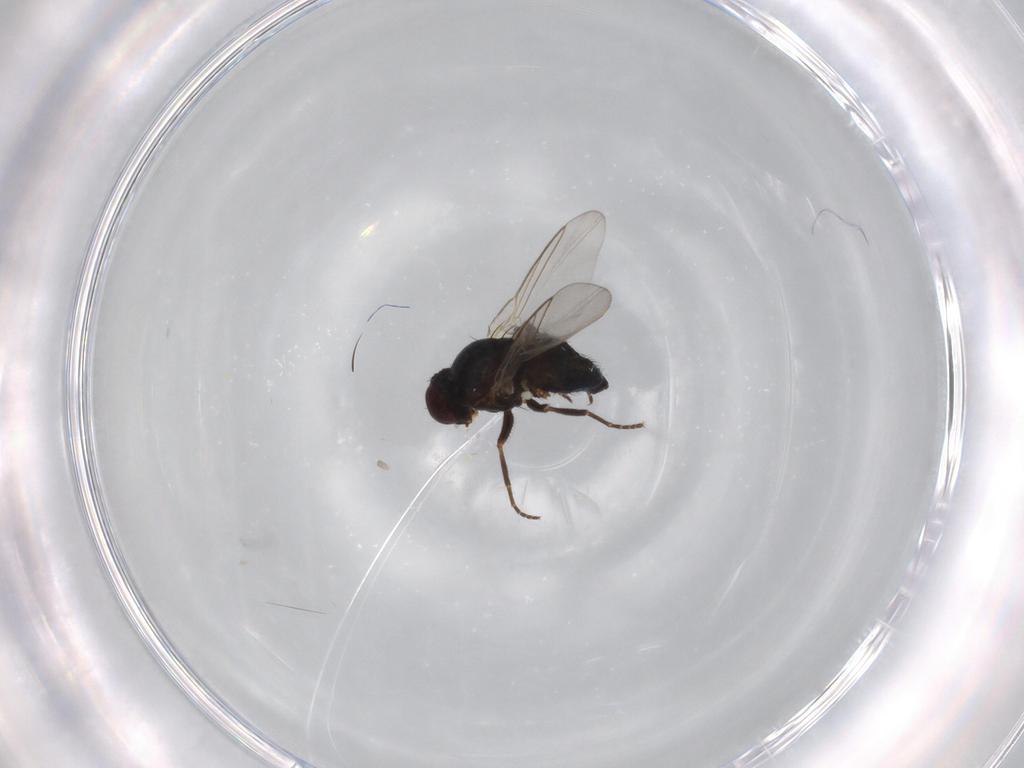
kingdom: Animalia
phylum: Arthropoda
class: Insecta
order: Diptera
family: Agromyzidae
